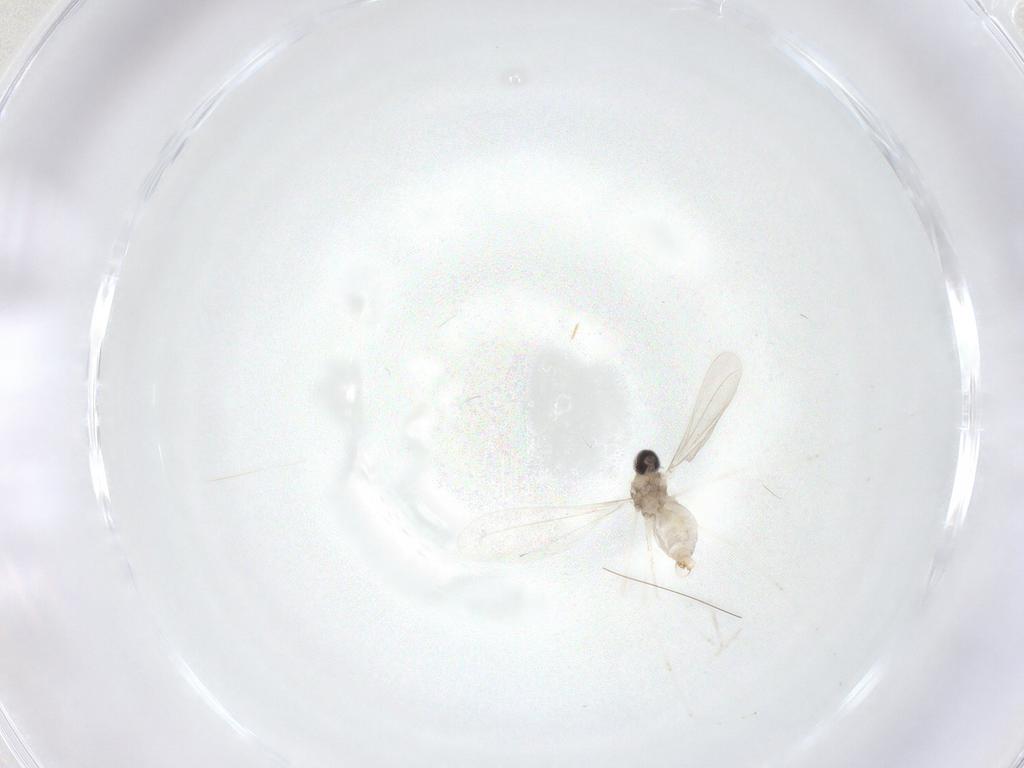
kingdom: Animalia
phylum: Arthropoda
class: Insecta
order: Diptera
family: Cecidomyiidae
